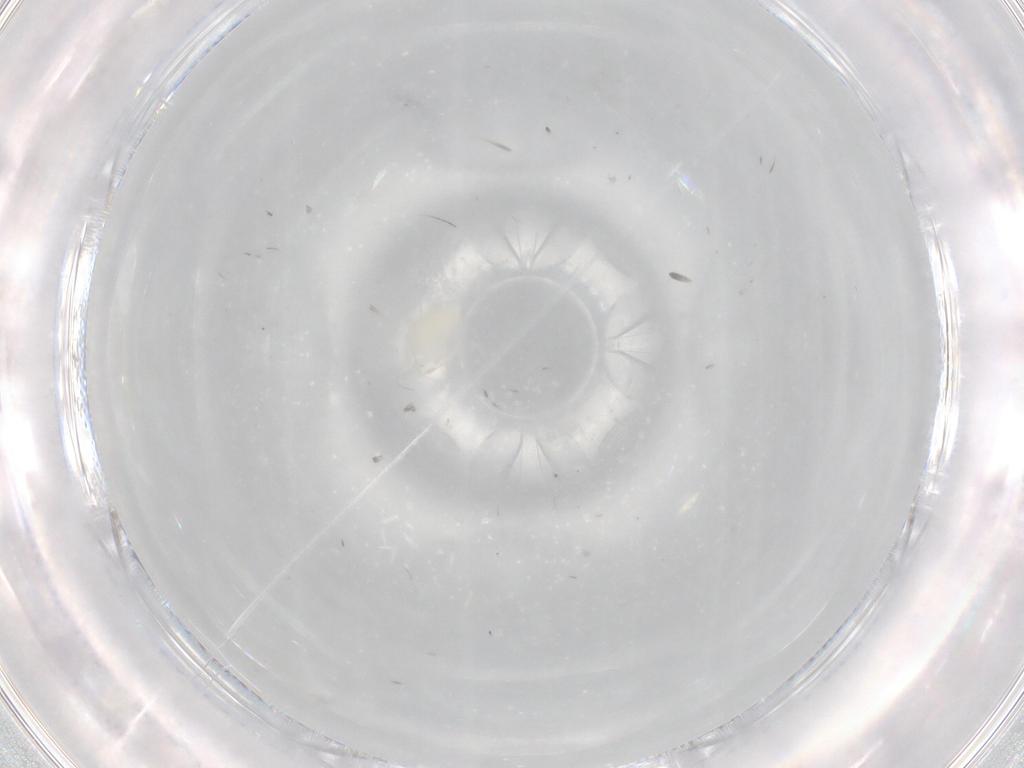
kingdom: Animalia
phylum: Arthropoda
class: Insecta
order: Psocodea
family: Lepidopsocidae
